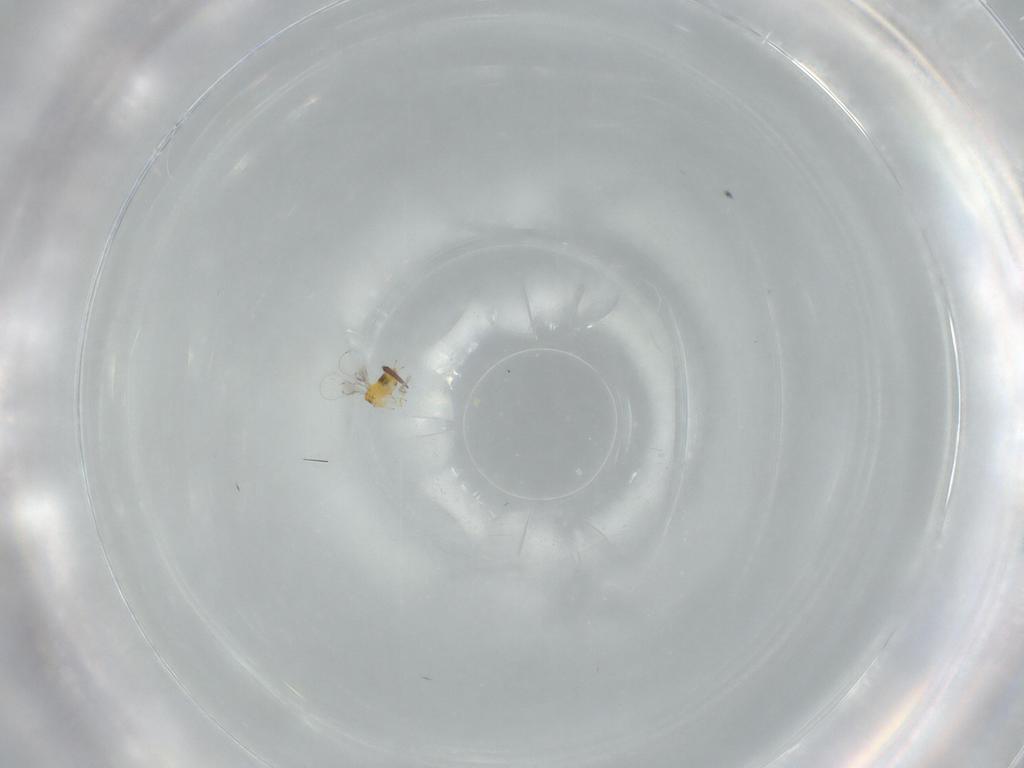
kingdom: Animalia
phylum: Arthropoda
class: Insecta
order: Hymenoptera
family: Trichogrammatidae
